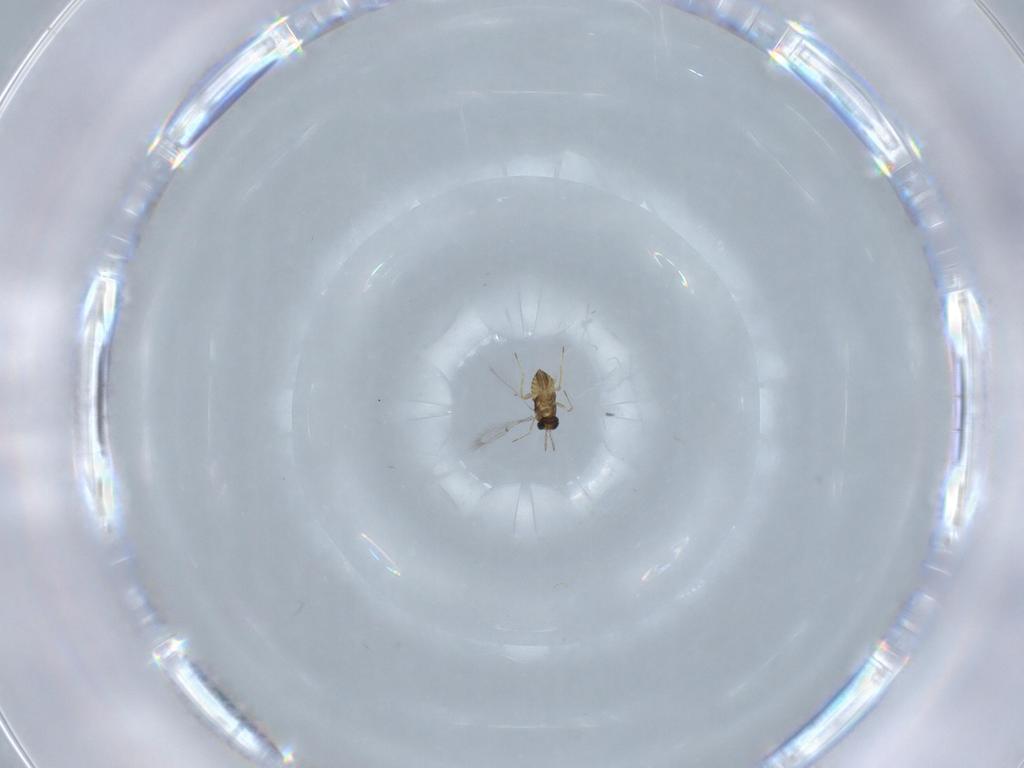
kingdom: Animalia
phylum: Arthropoda
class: Insecta
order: Hymenoptera
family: Trichogrammatidae
